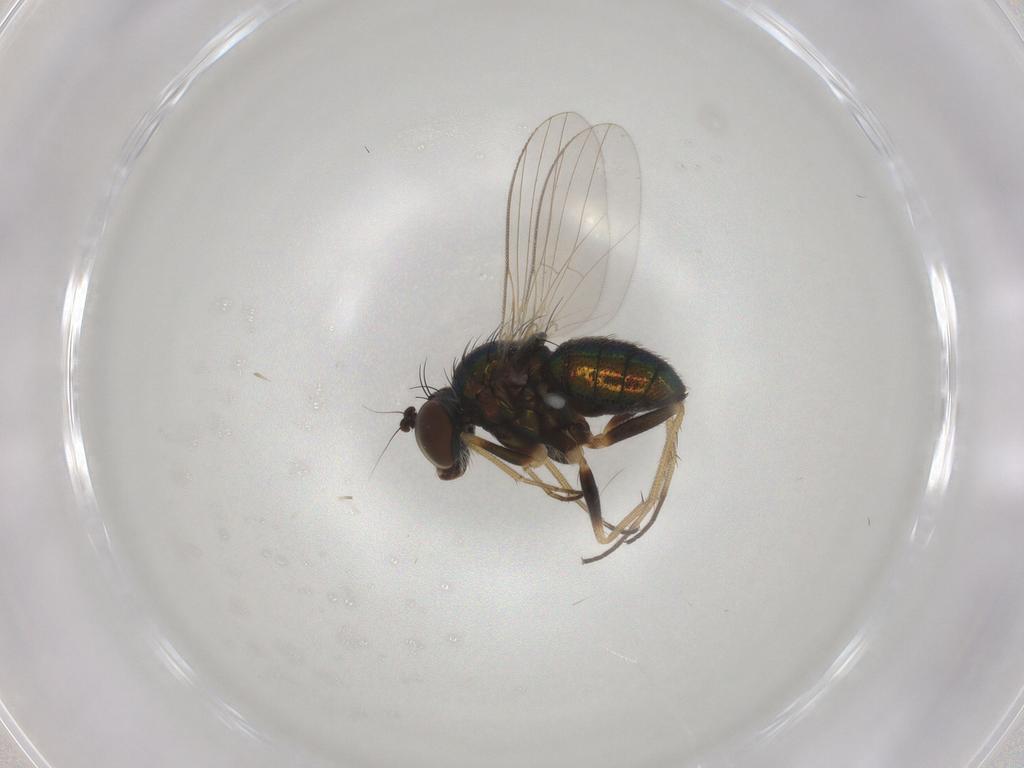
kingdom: Animalia
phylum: Arthropoda
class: Insecta
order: Diptera
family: Dolichopodidae
